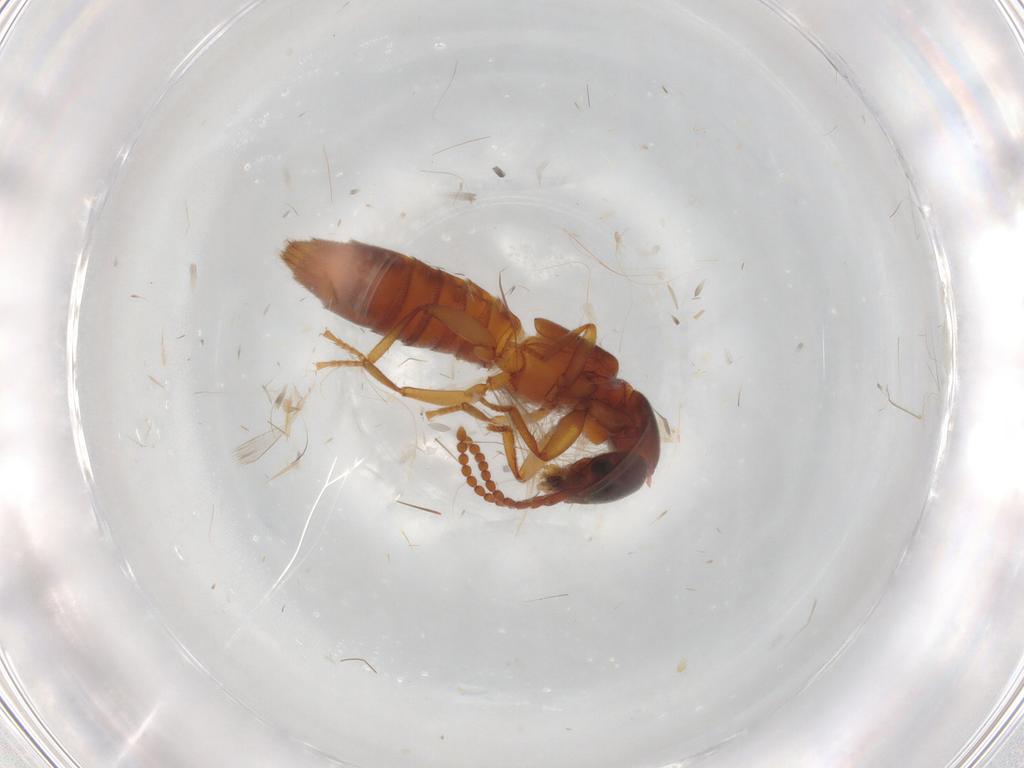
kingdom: Animalia
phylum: Arthropoda
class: Insecta
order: Coleoptera
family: Staphylinidae
